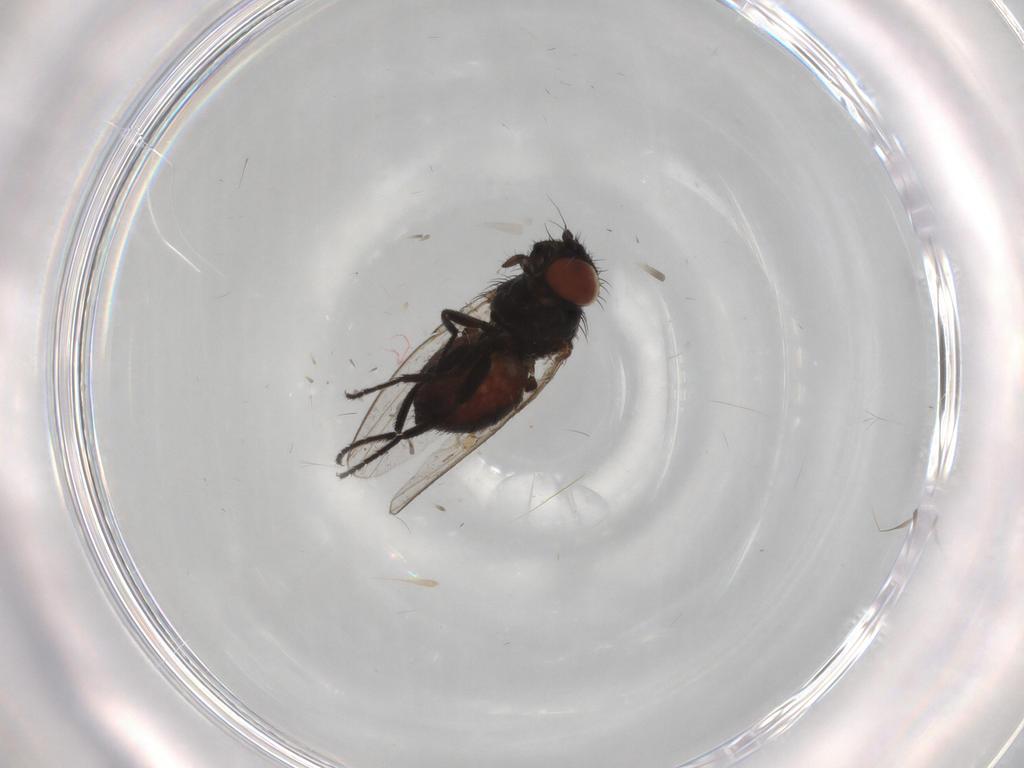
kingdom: Animalia
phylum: Arthropoda
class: Insecta
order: Diptera
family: Milichiidae
